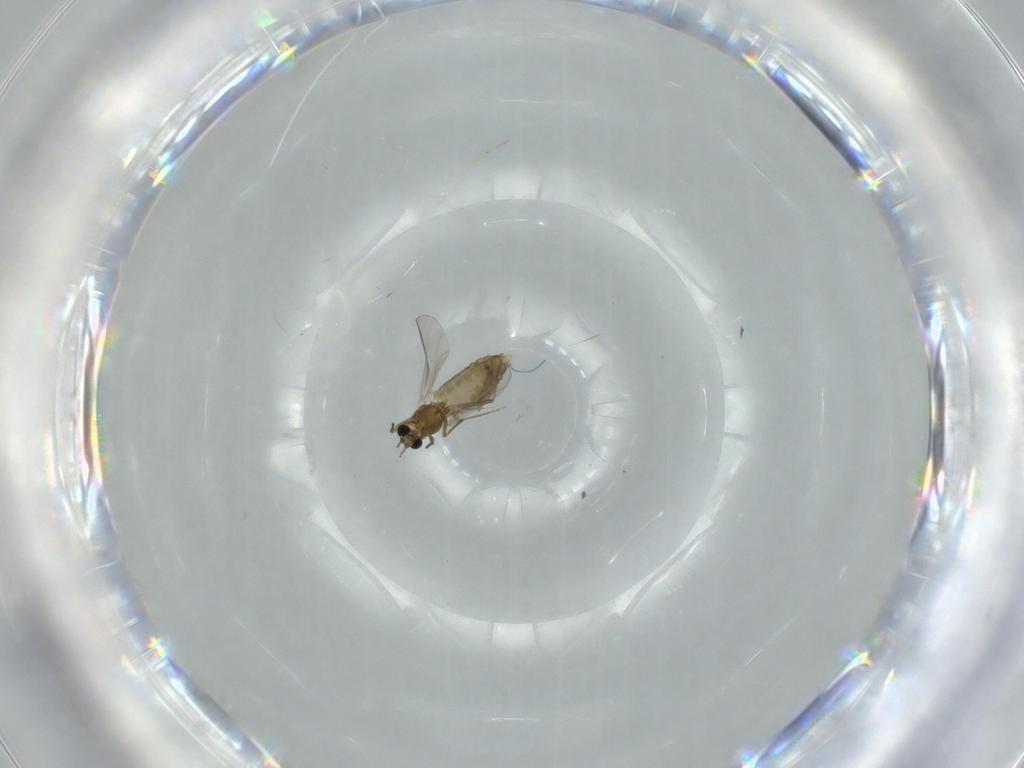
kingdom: Animalia
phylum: Arthropoda
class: Insecta
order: Diptera
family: Chironomidae
